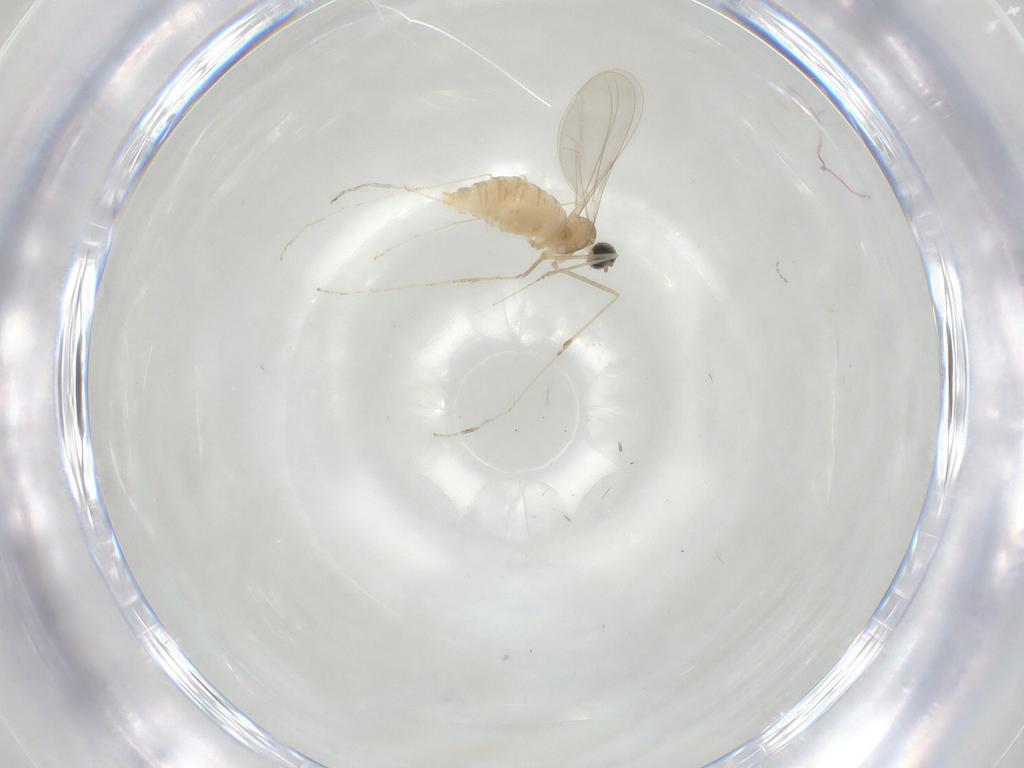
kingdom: Animalia
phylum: Arthropoda
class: Insecta
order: Diptera
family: Cecidomyiidae
